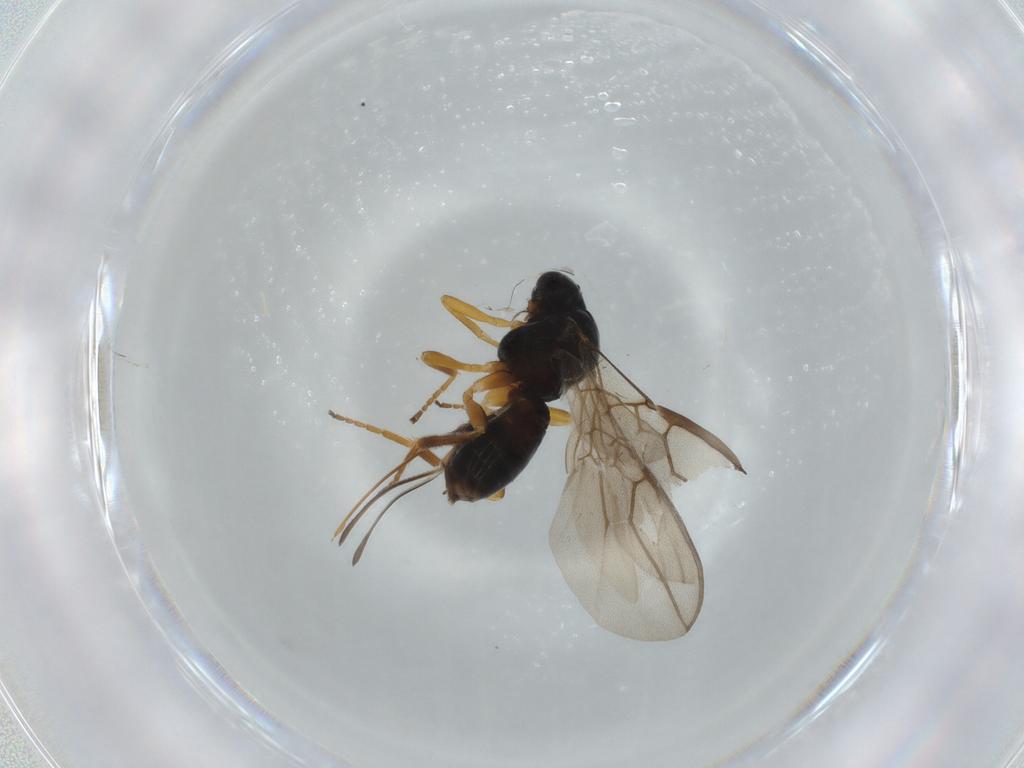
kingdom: Animalia
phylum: Arthropoda
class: Insecta
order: Hymenoptera
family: Braconidae
